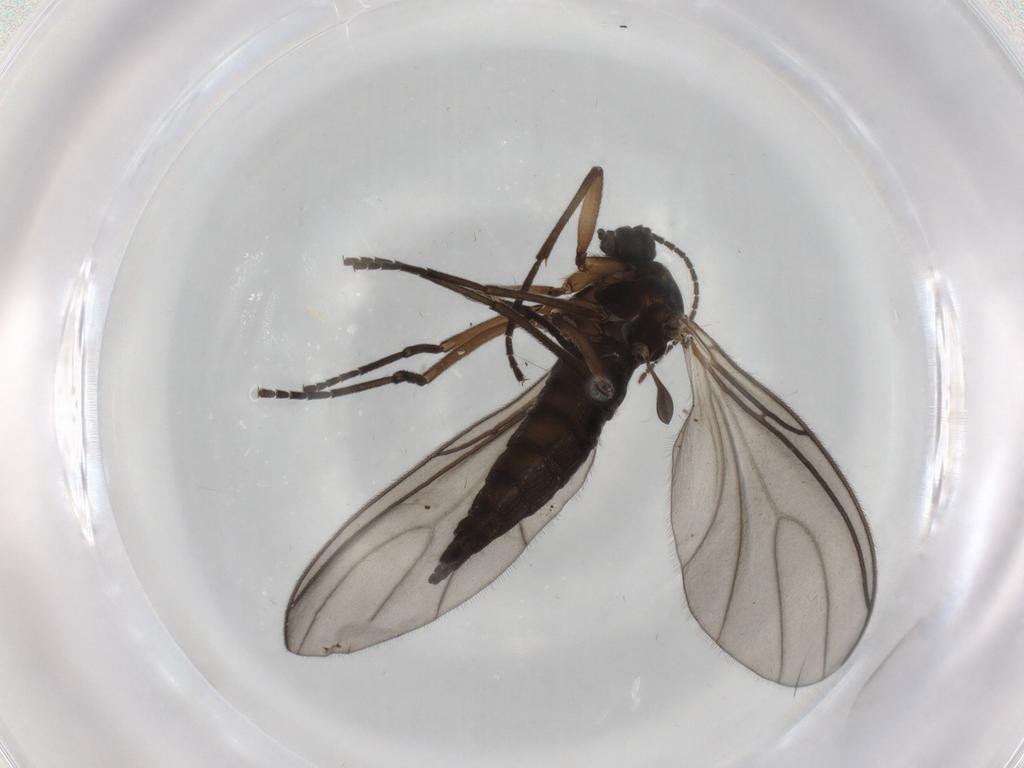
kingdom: Animalia
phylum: Arthropoda
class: Insecta
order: Diptera
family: Sciaridae
